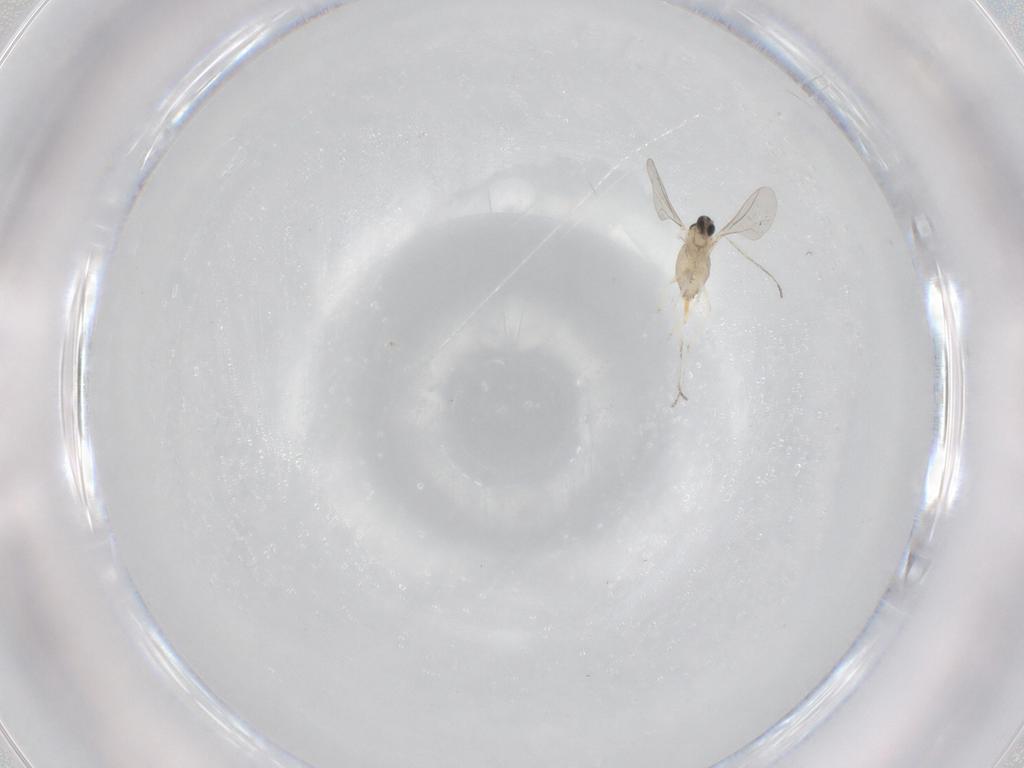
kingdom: Animalia
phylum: Arthropoda
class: Insecta
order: Diptera
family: Cecidomyiidae
